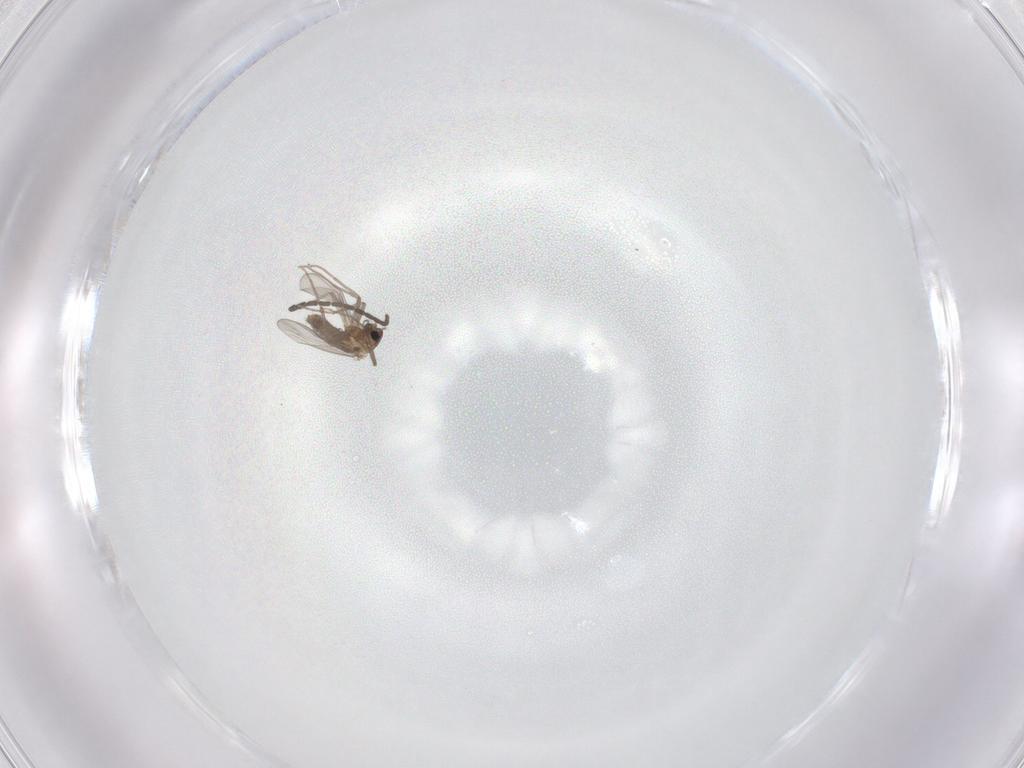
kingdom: Animalia
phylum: Arthropoda
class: Insecta
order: Diptera
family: Chironomidae
